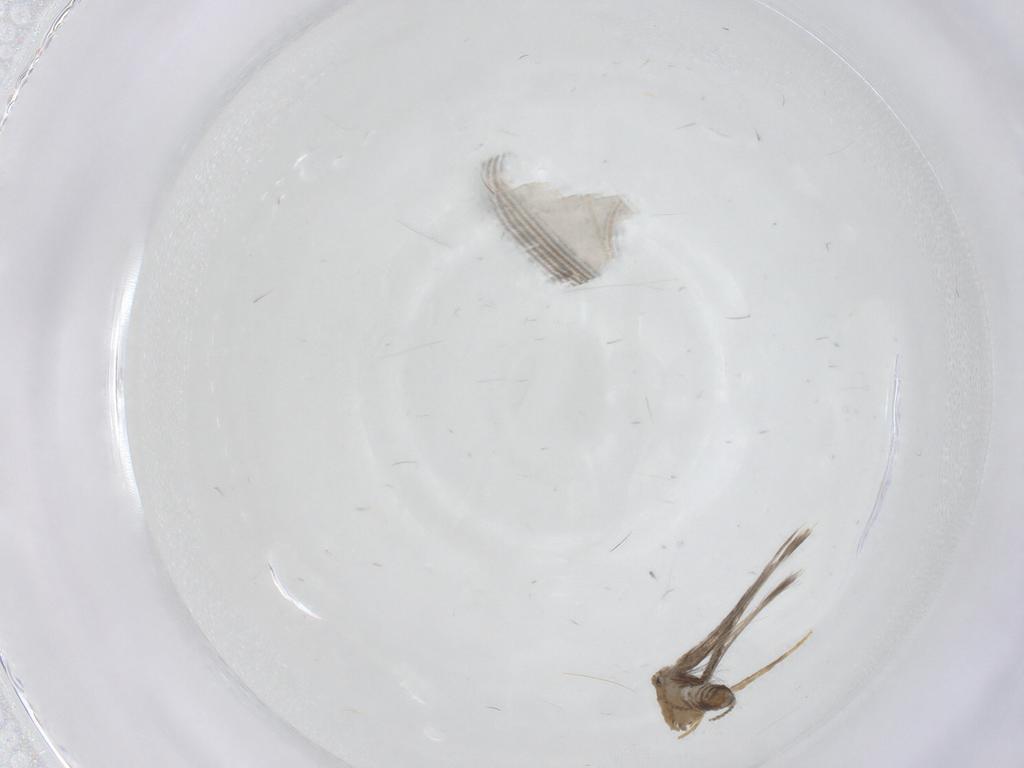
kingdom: Animalia
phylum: Arthropoda
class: Insecta
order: Lepidoptera
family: Nepticulidae
